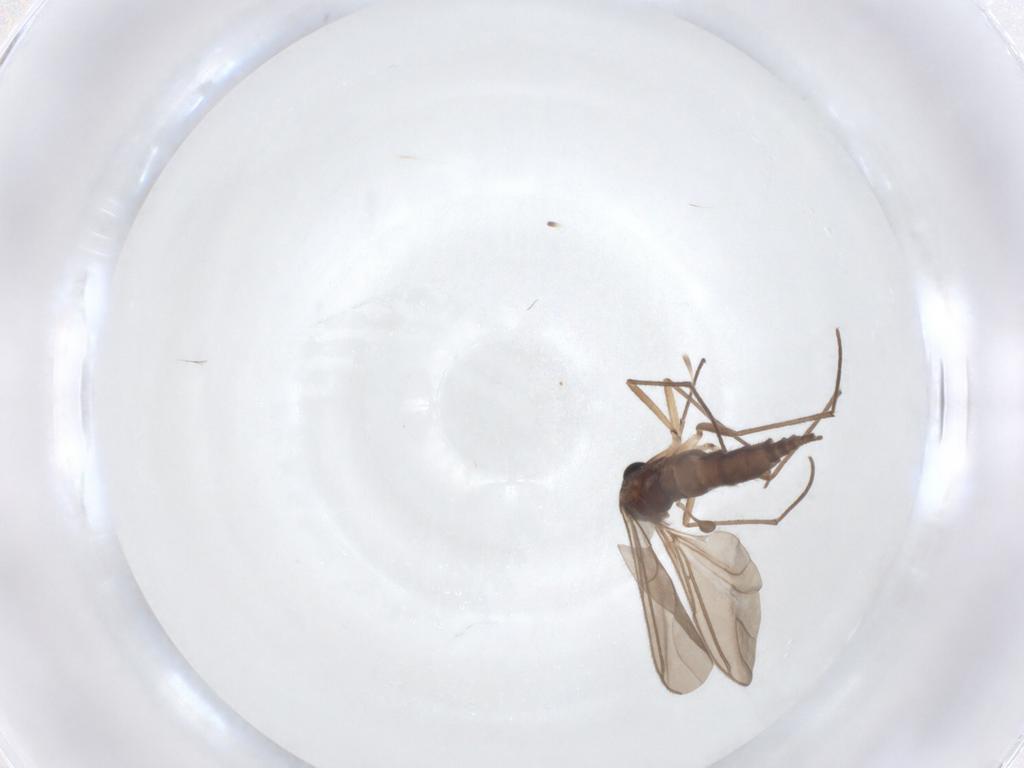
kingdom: Animalia
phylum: Arthropoda
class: Insecta
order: Diptera
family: Sciaridae
